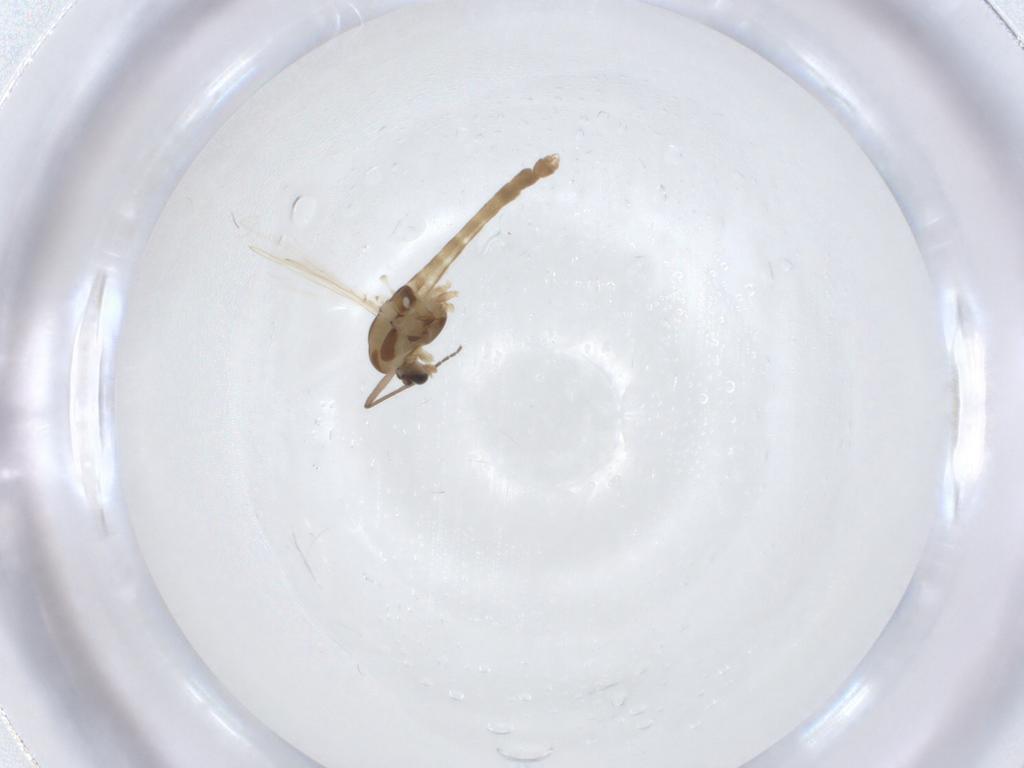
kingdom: Animalia
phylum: Arthropoda
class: Insecta
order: Diptera
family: Chironomidae
